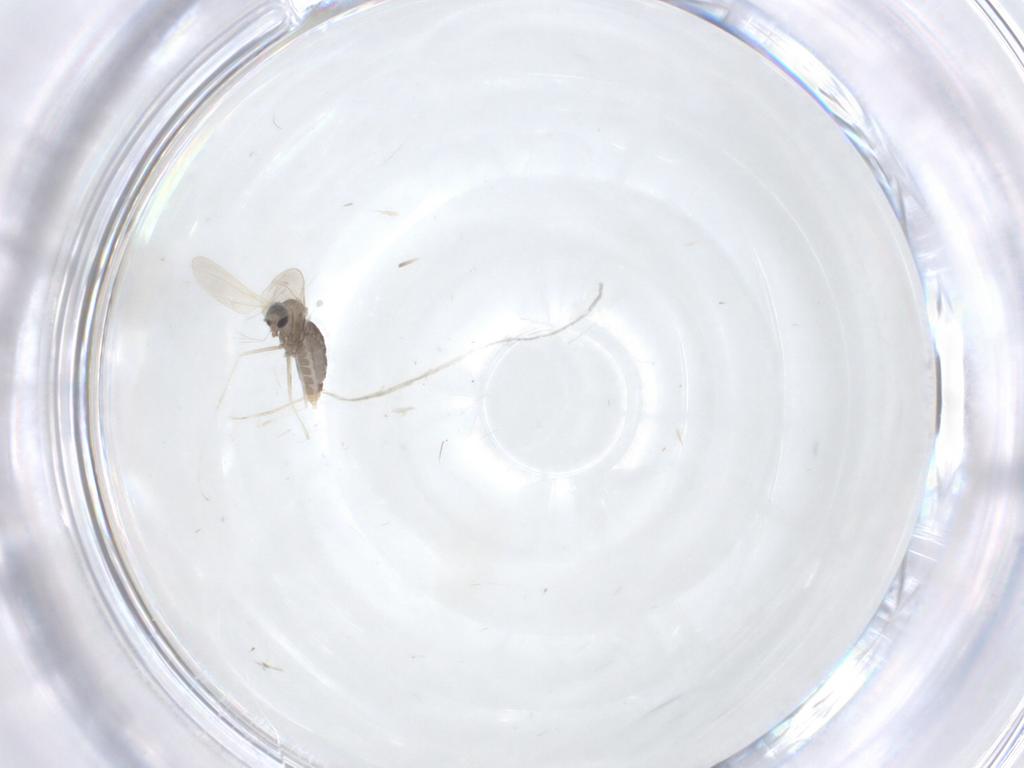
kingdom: Animalia
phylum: Arthropoda
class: Insecta
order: Diptera
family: Cecidomyiidae
